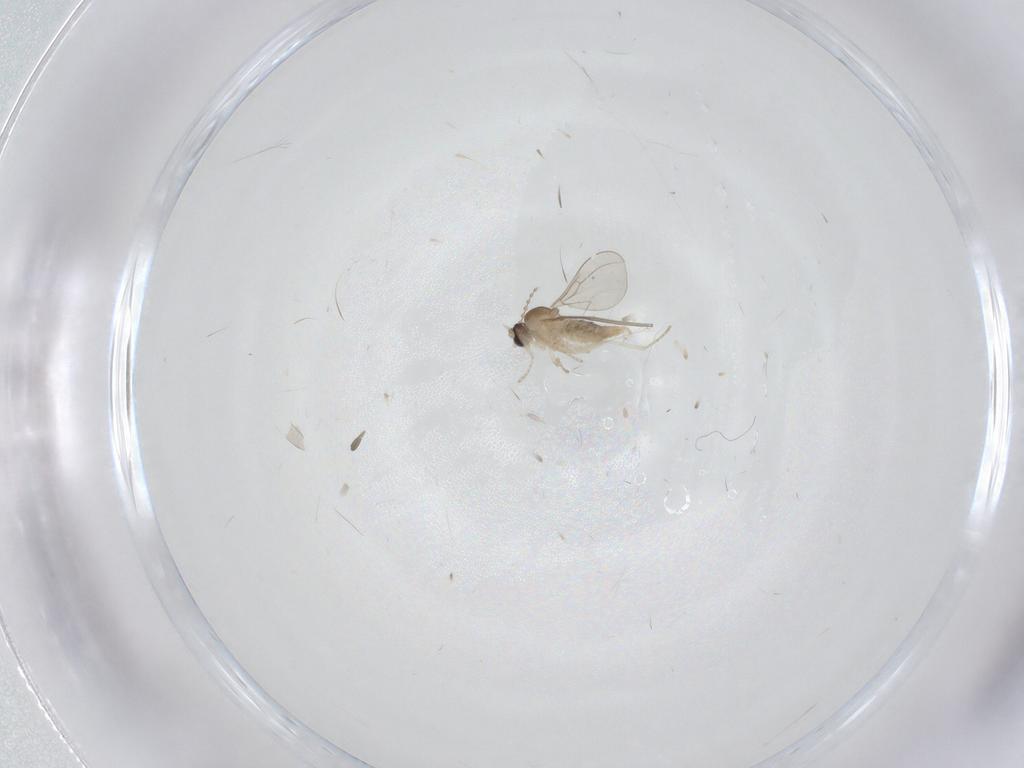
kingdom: Animalia
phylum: Arthropoda
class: Insecta
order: Diptera
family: Cecidomyiidae
